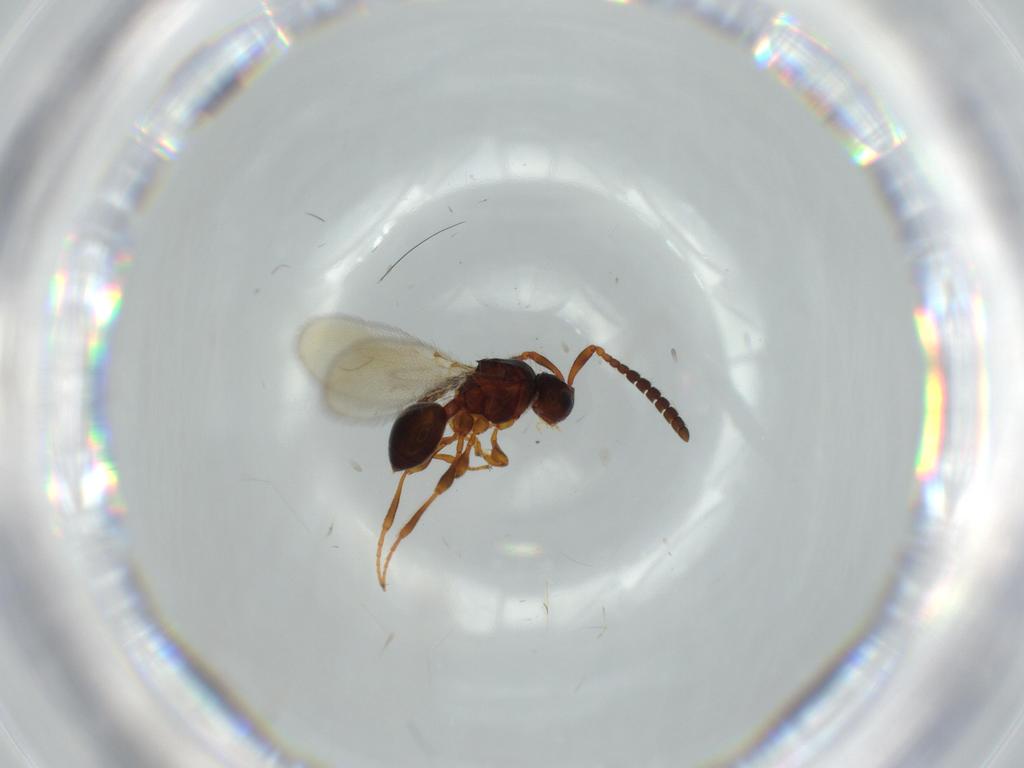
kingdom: Animalia
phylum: Arthropoda
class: Insecta
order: Hymenoptera
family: Diapriidae
